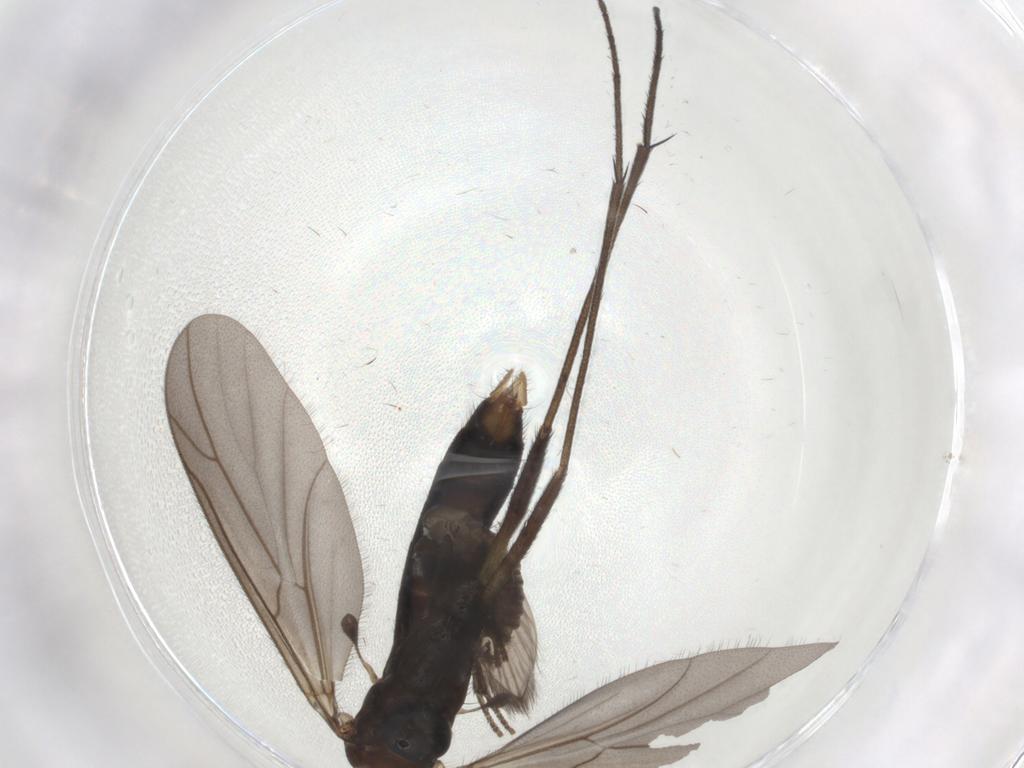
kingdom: Animalia
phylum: Arthropoda
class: Insecta
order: Diptera
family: Psychodidae
